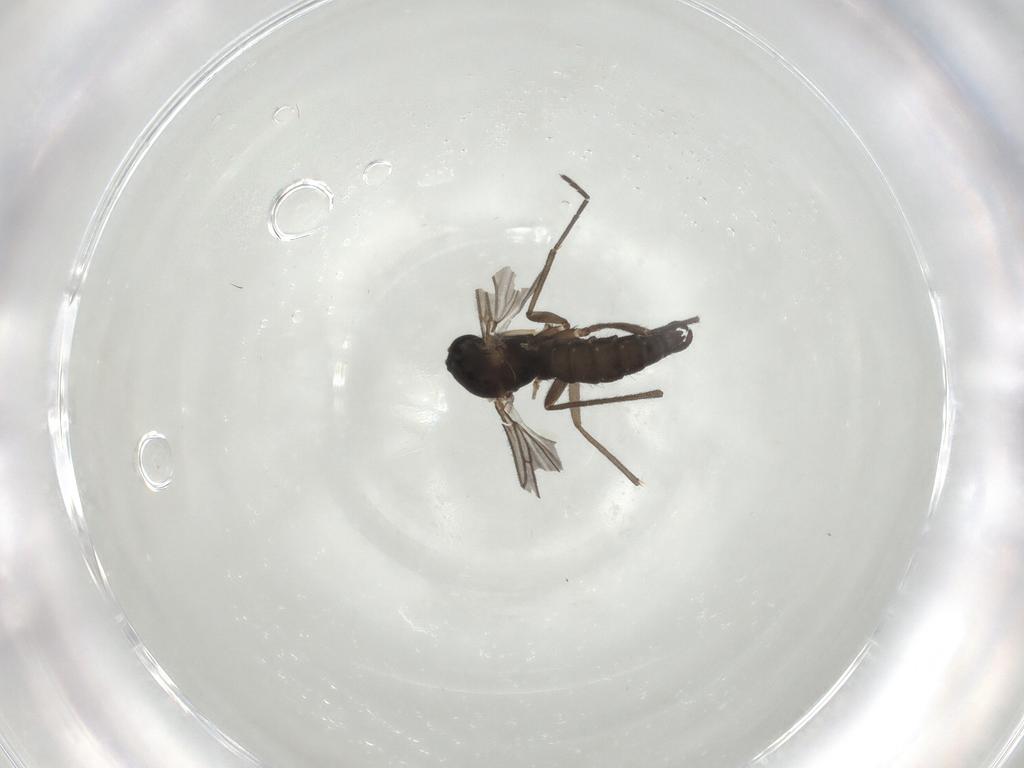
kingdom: Animalia
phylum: Arthropoda
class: Insecta
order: Diptera
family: Sciaridae
